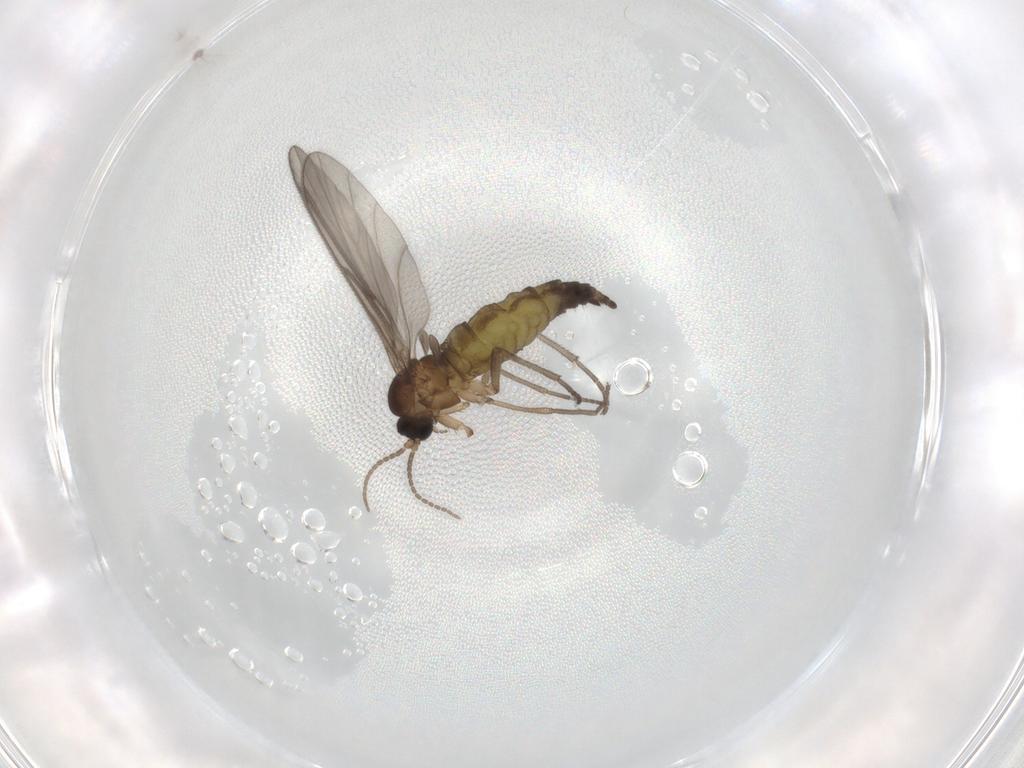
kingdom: Animalia
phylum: Arthropoda
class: Insecta
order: Diptera
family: Sciaridae
